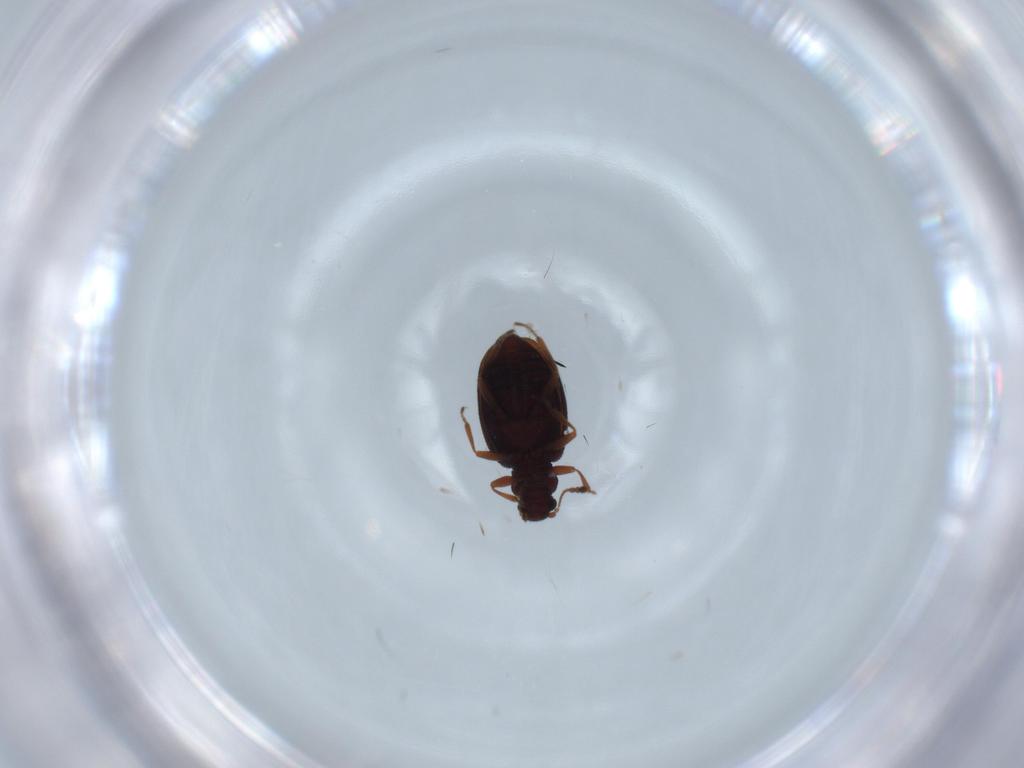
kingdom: Animalia
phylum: Arthropoda
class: Insecta
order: Coleoptera
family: Latridiidae
